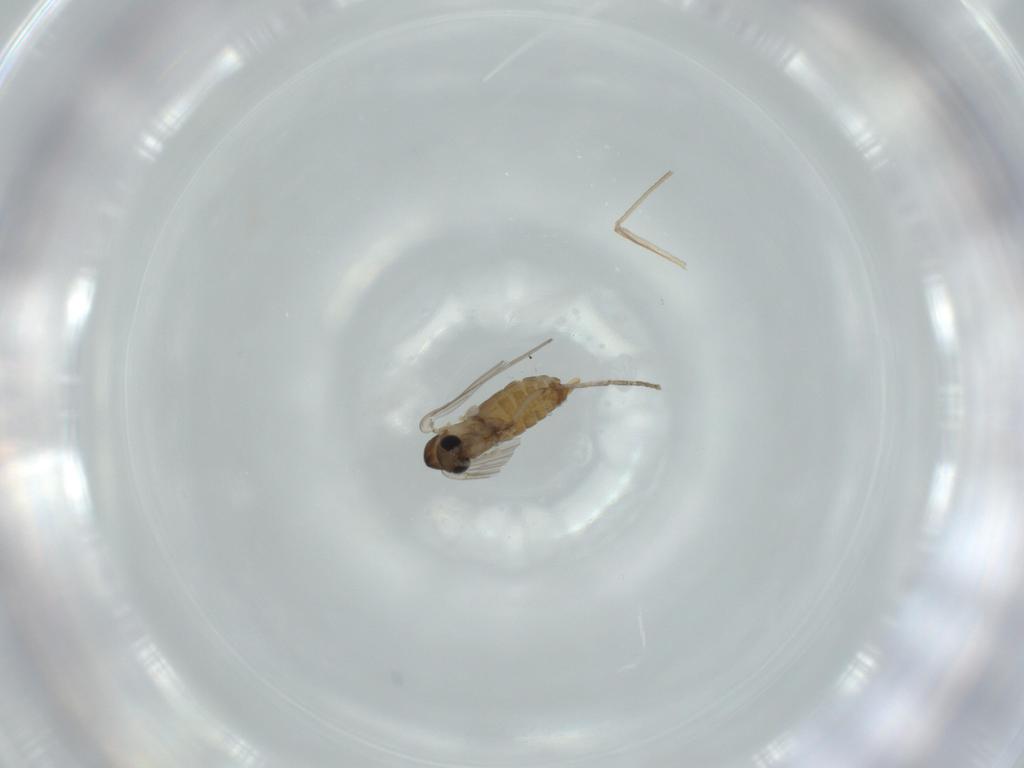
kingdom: Animalia
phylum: Arthropoda
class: Insecta
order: Diptera
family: Psychodidae
